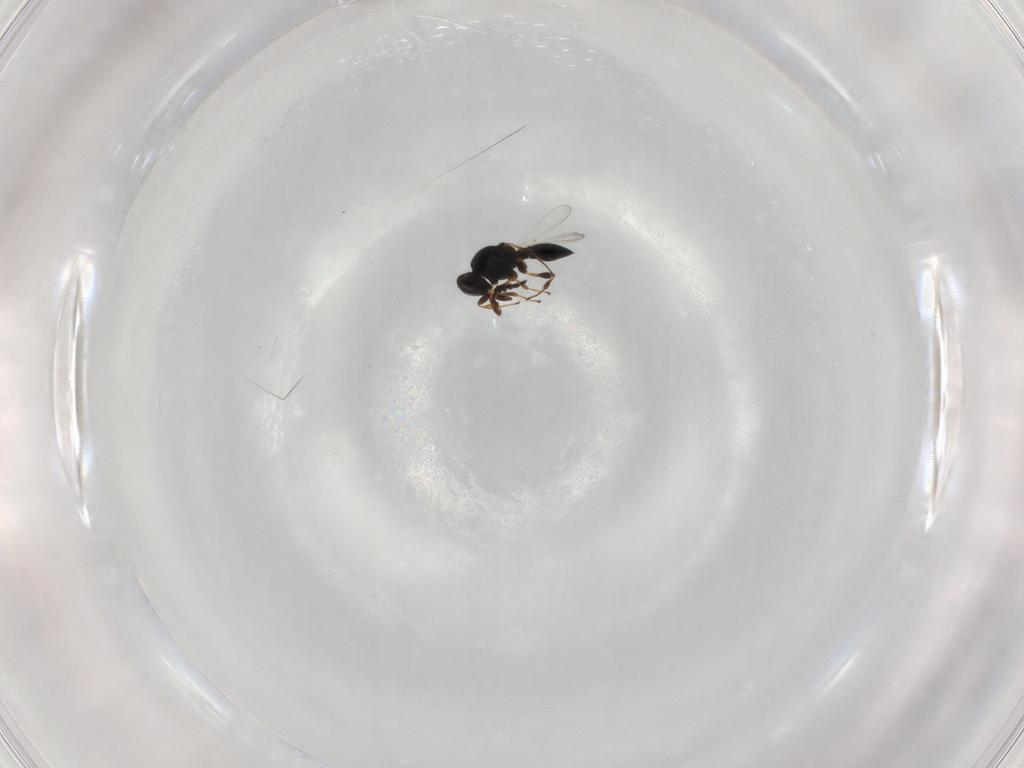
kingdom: Animalia
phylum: Arthropoda
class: Insecta
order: Hymenoptera
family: Platygastridae
